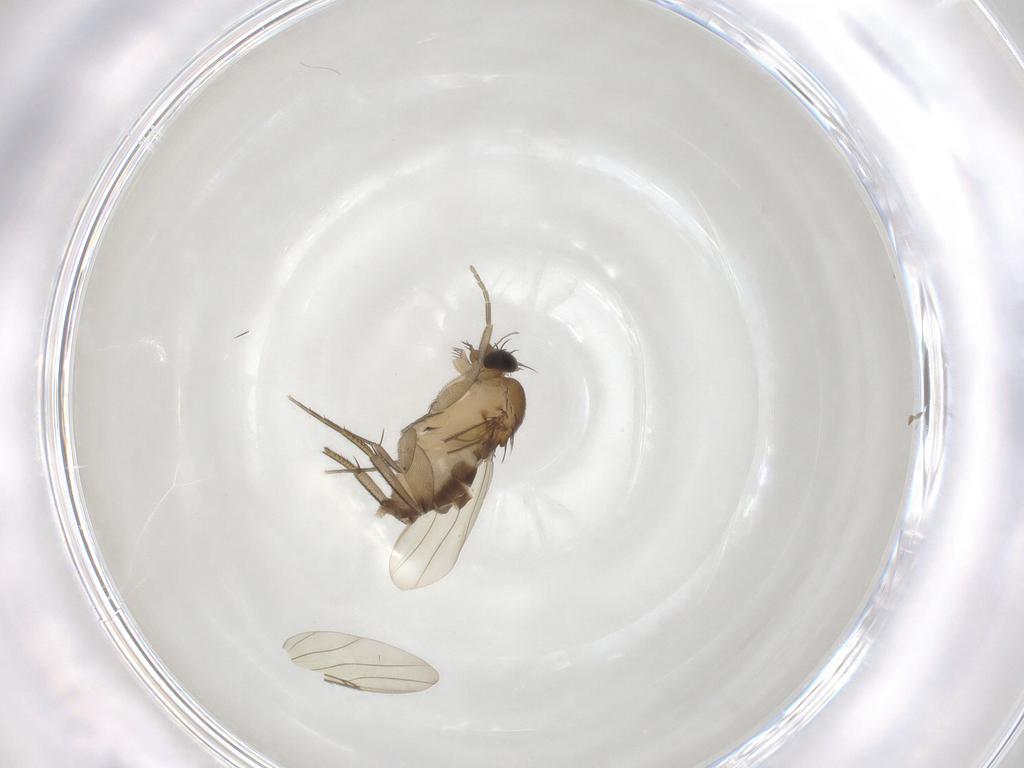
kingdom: Animalia
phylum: Arthropoda
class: Insecta
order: Diptera
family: Phoridae
